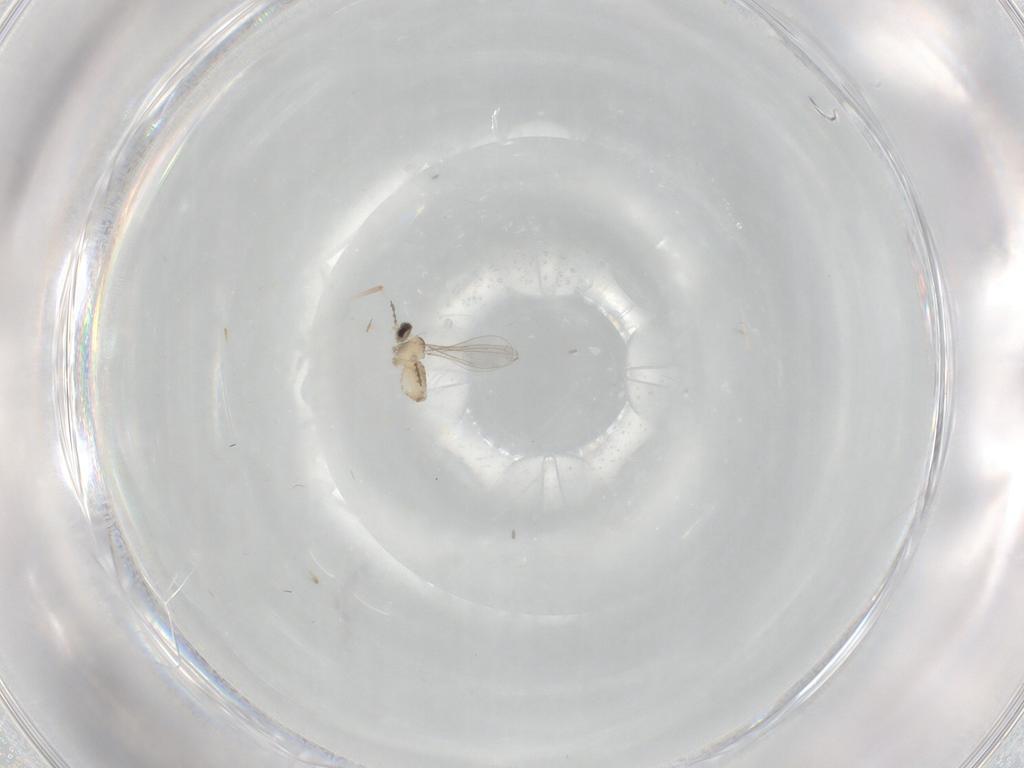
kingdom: Animalia
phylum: Arthropoda
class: Insecta
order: Diptera
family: Cecidomyiidae
